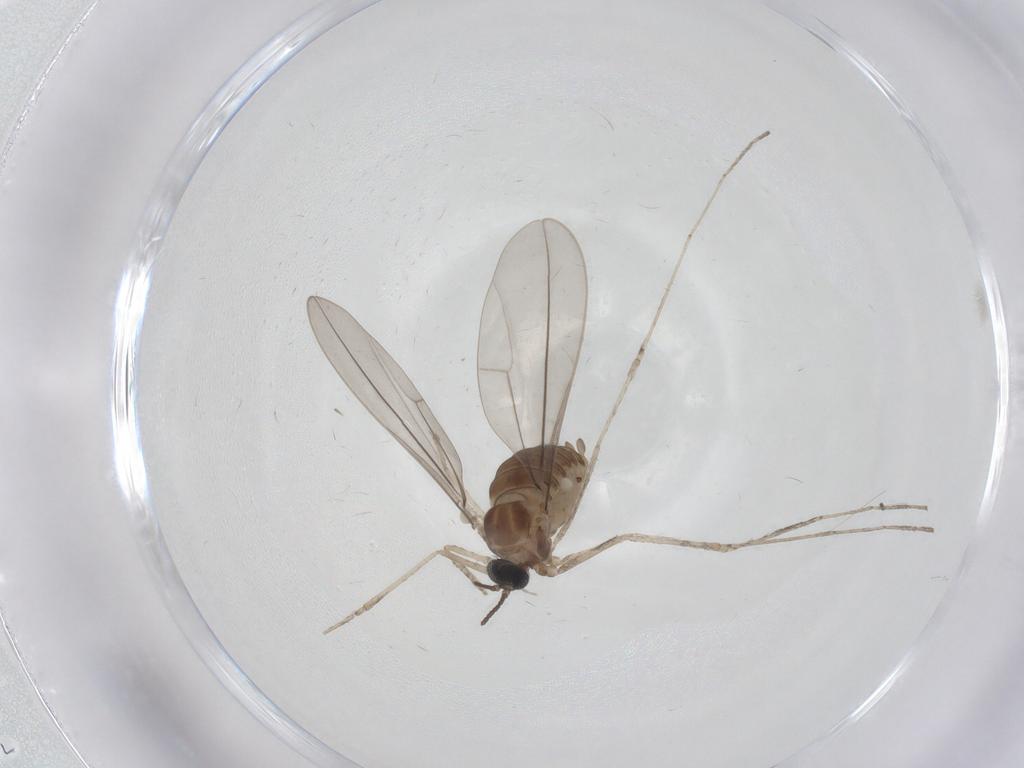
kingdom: Animalia
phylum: Arthropoda
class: Insecta
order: Diptera
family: Cecidomyiidae
